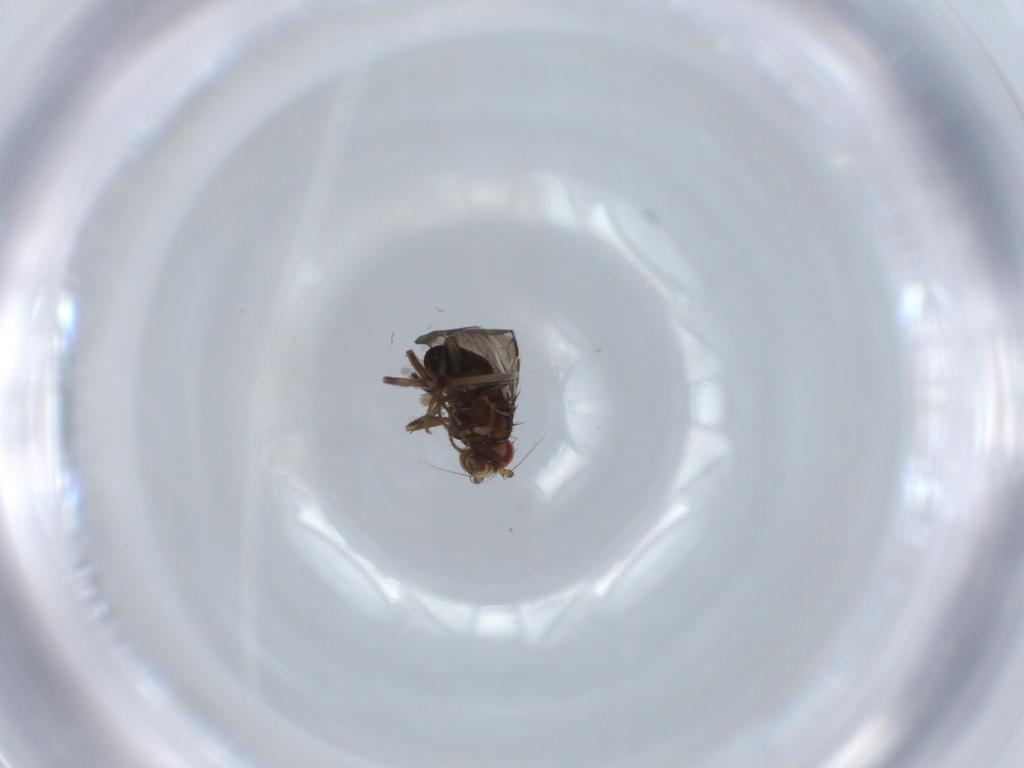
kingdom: Animalia
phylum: Arthropoda
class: Insecta
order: Diptera
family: Sphaeroceridae
